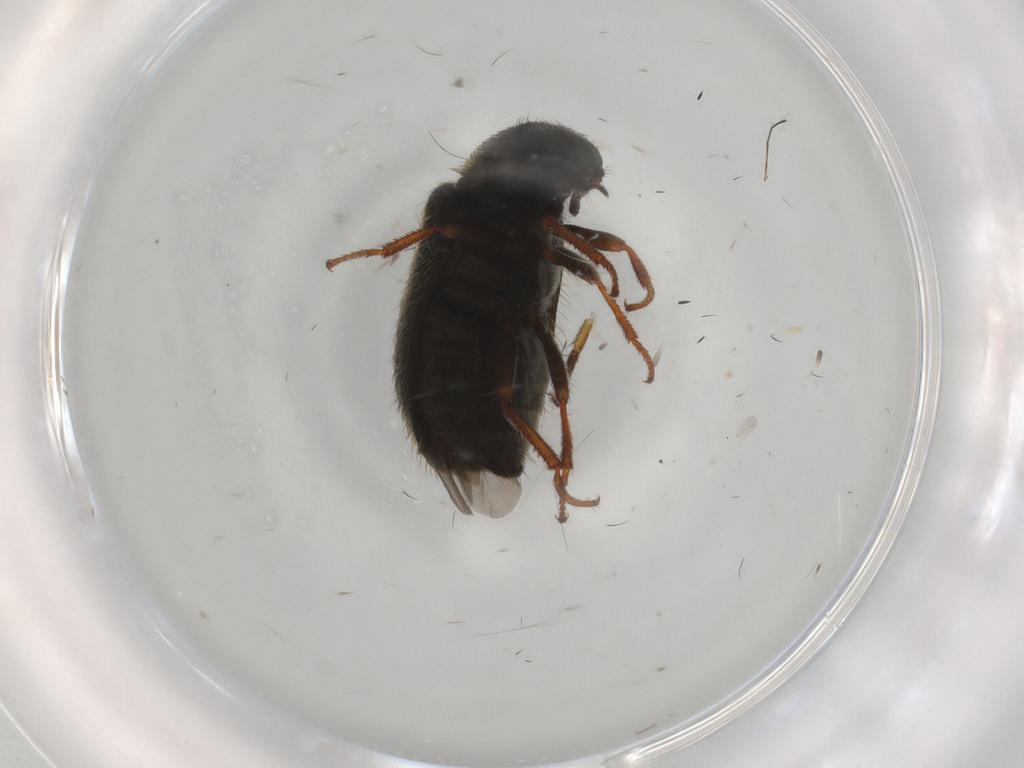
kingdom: Animalia
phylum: Arthropoda
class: Insecta
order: Coleoptera
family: Melyridae
